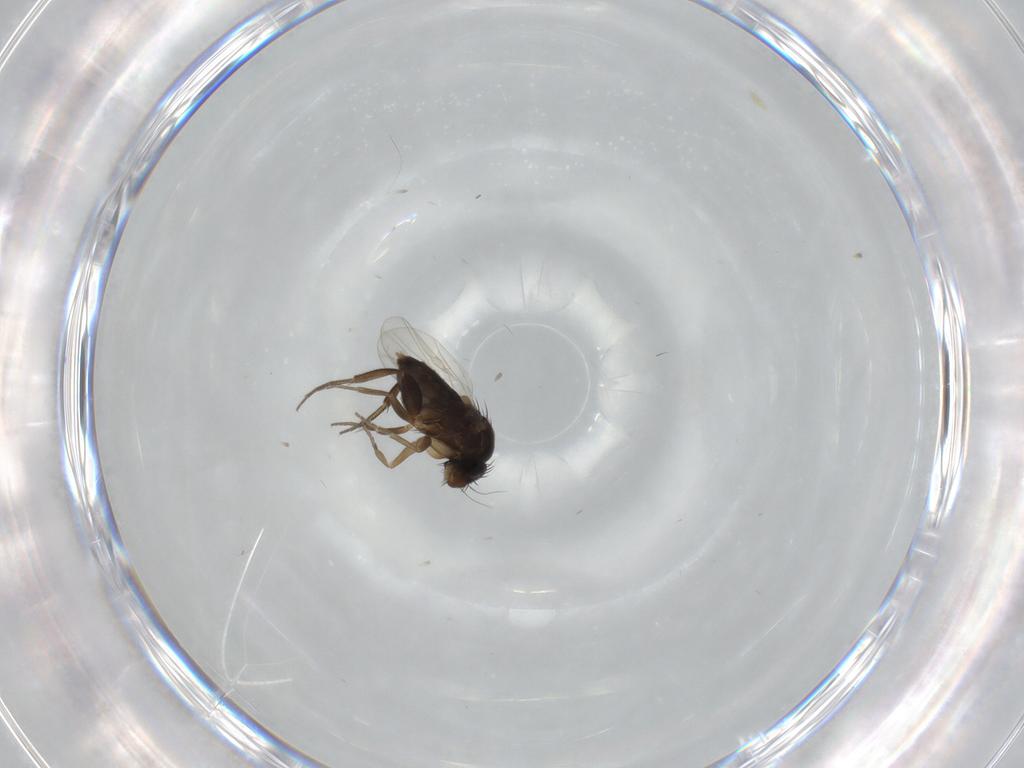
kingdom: Animalia
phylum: Arthropoda
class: Insecta
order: Diptera
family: Phoridae
